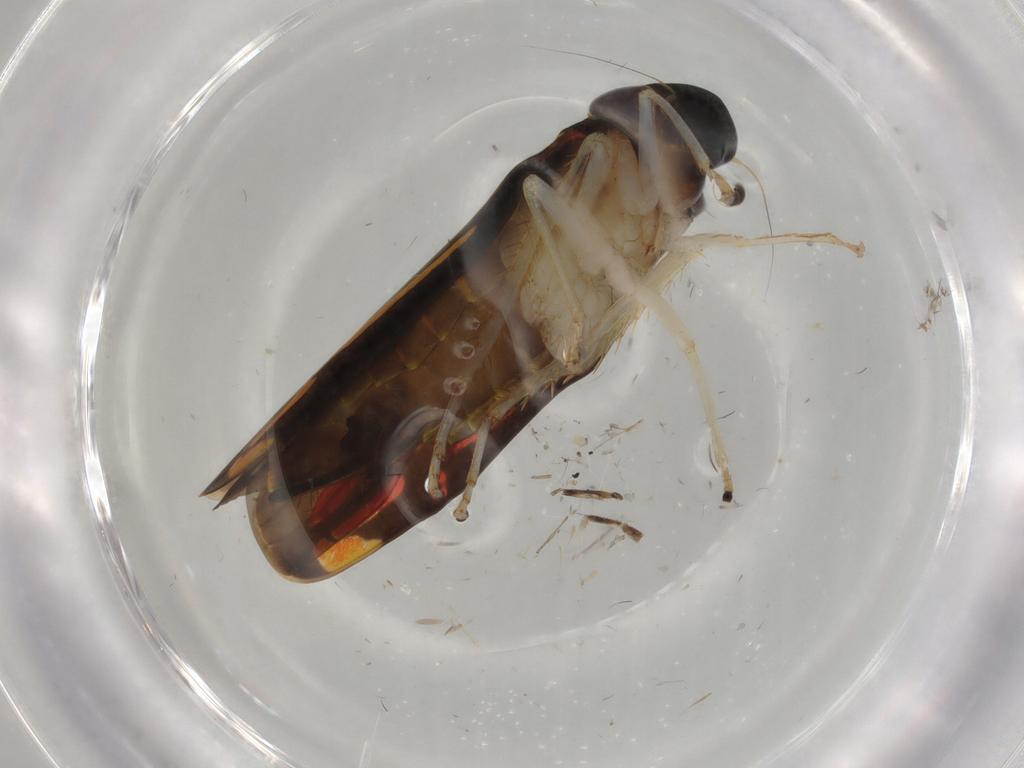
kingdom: Animalia
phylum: Arthropoda
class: Insecta
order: Hemiptera
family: Cicadellidae
